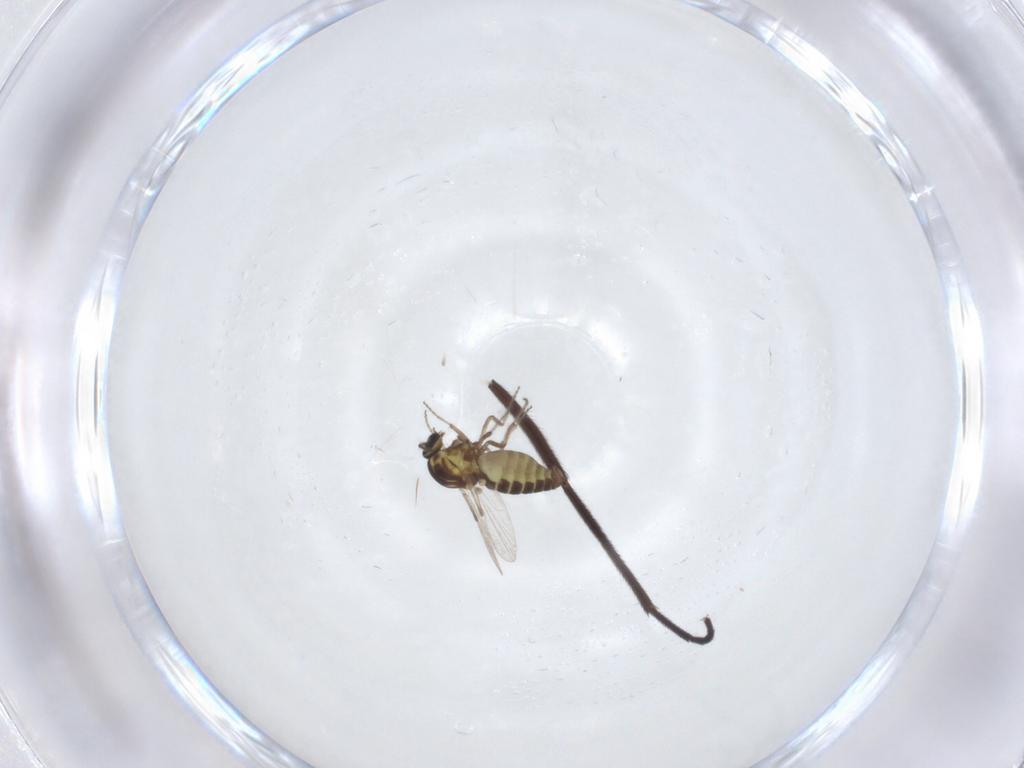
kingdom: Animalia
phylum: Arthropoda
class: Insecta
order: Diptera
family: Ceratopogonidae
